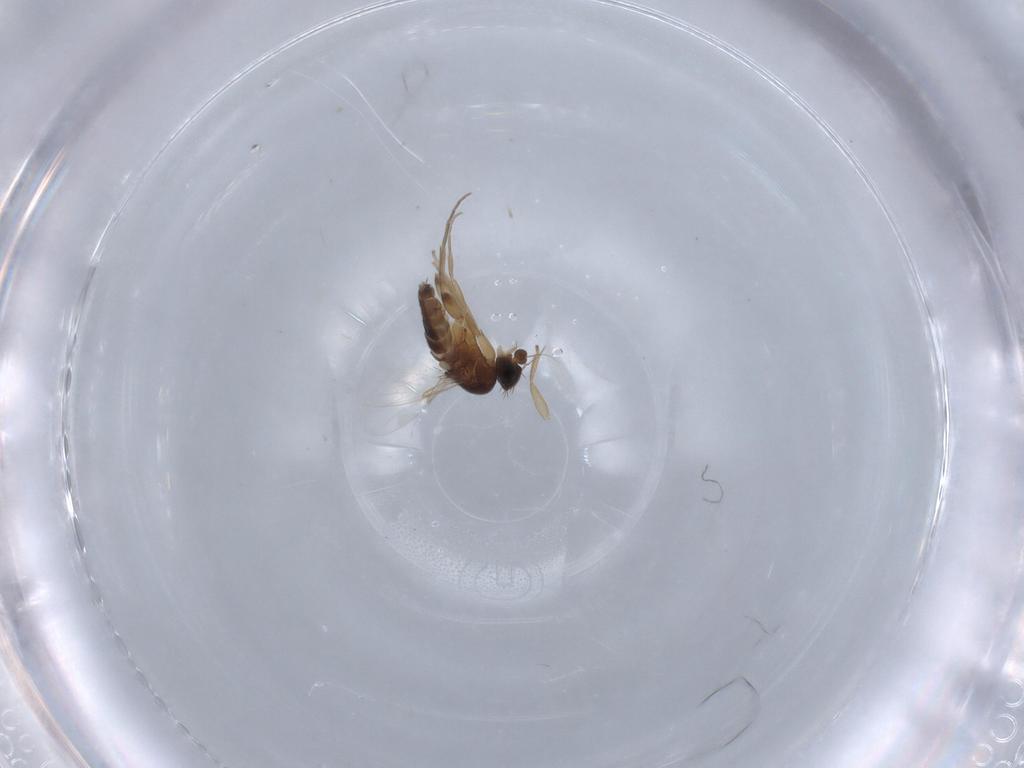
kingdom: Animalia
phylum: Arthropoda
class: Insecta
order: Diptera
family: Phoridae
